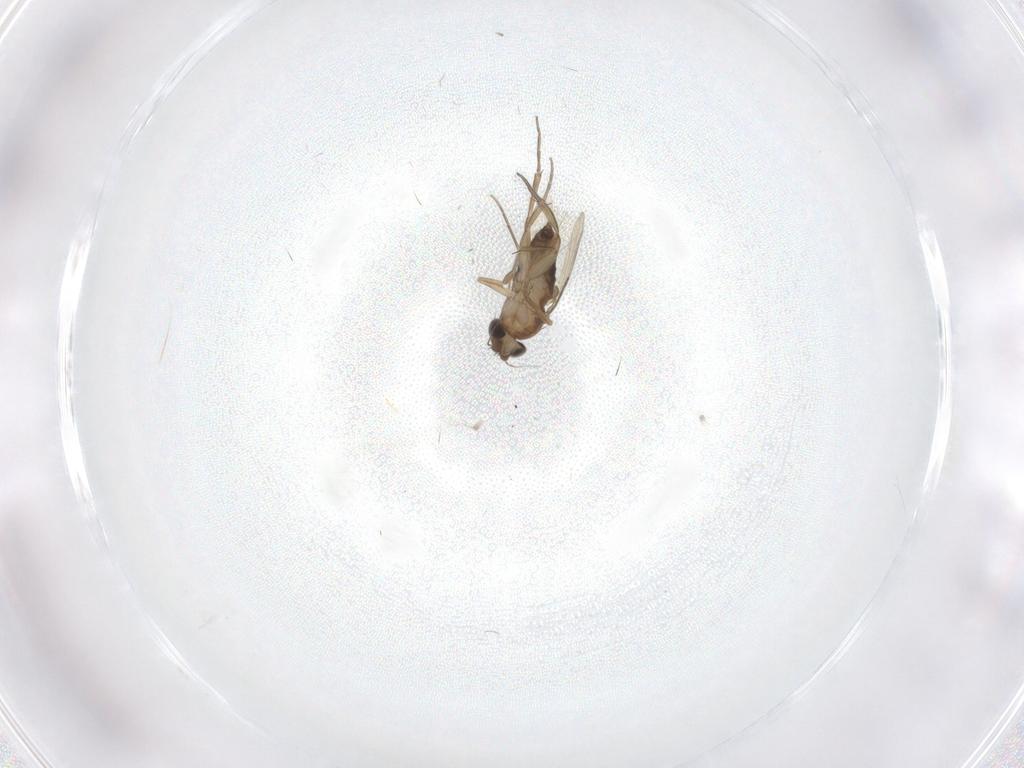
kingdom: Animalia
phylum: Arthropoda
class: Insecta
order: Diptera
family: Phoridae
